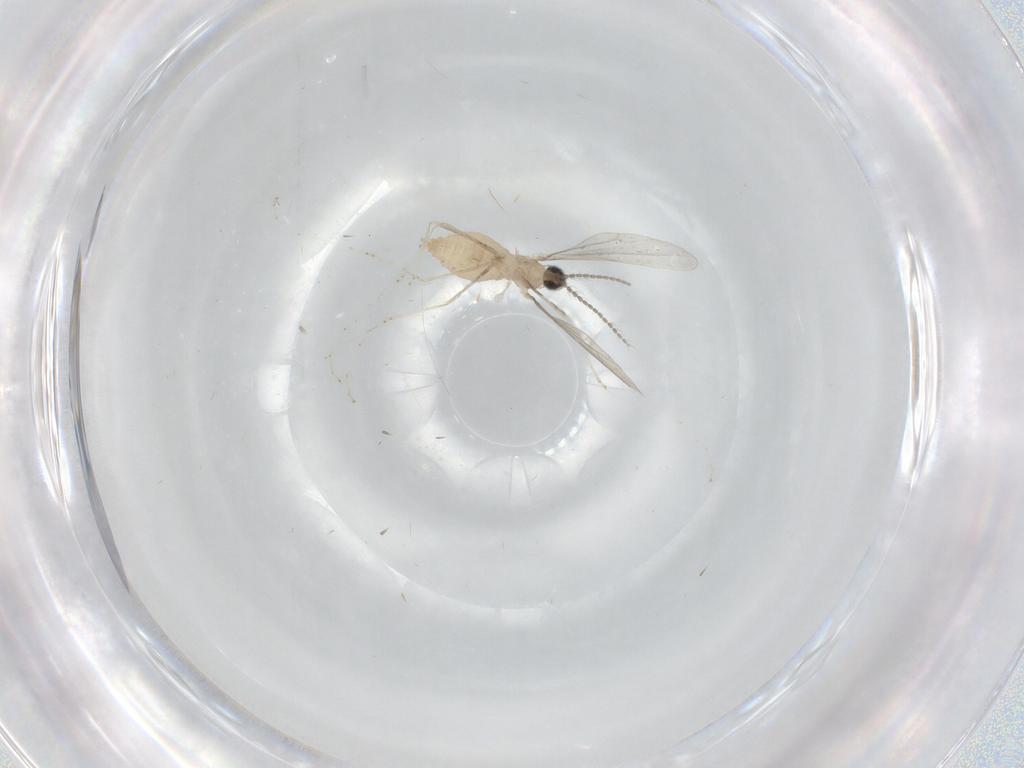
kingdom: Animalia
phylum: Arthropoda
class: Insecta
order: Diptera
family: Cecidomyiidae
